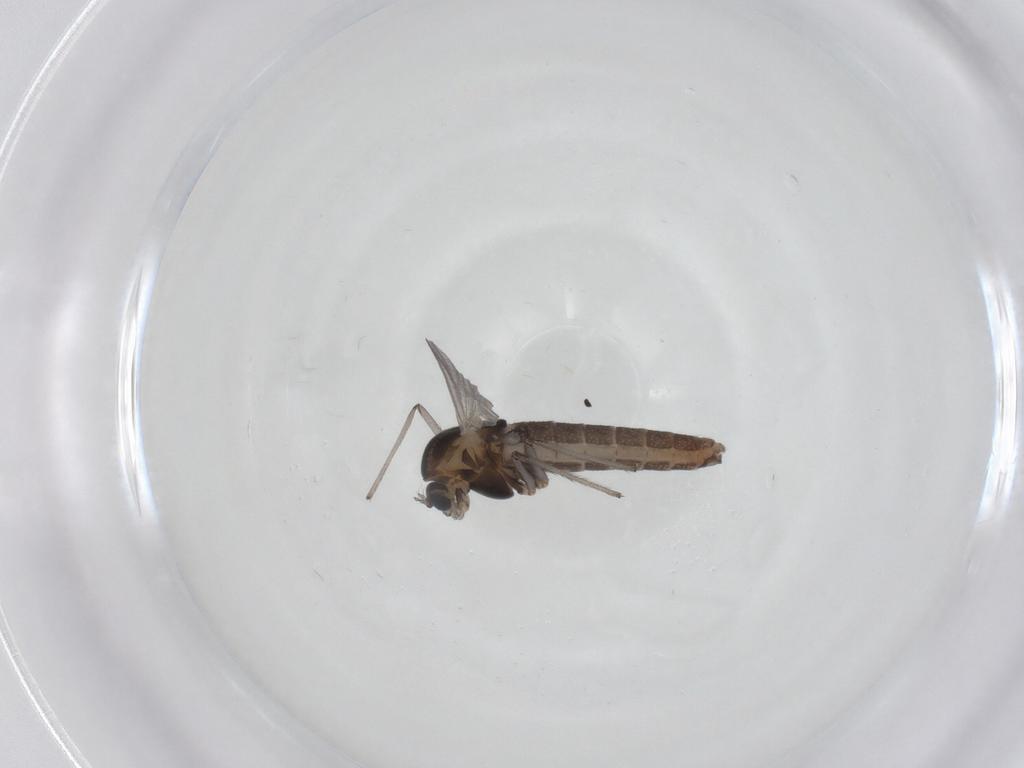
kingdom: Animalia
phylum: Arthropoda
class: Insecta
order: Diptera
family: Chironomidae
